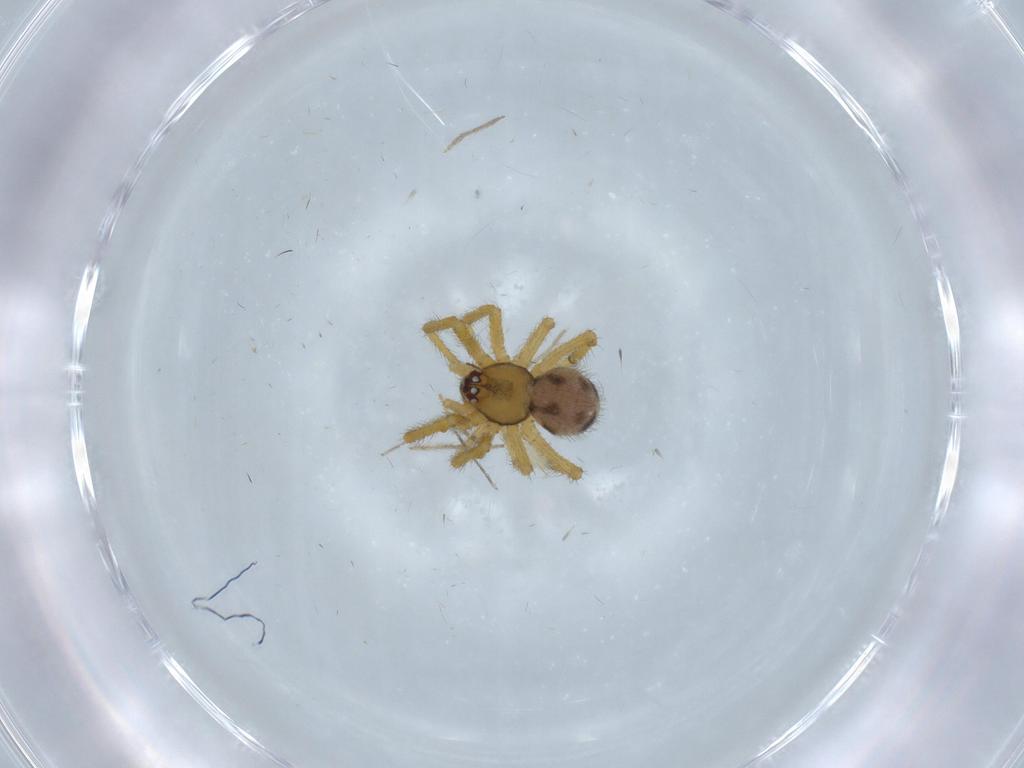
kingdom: Animalia
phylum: Arthropoda
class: Arachnida
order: Araneae
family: Theridiidae
